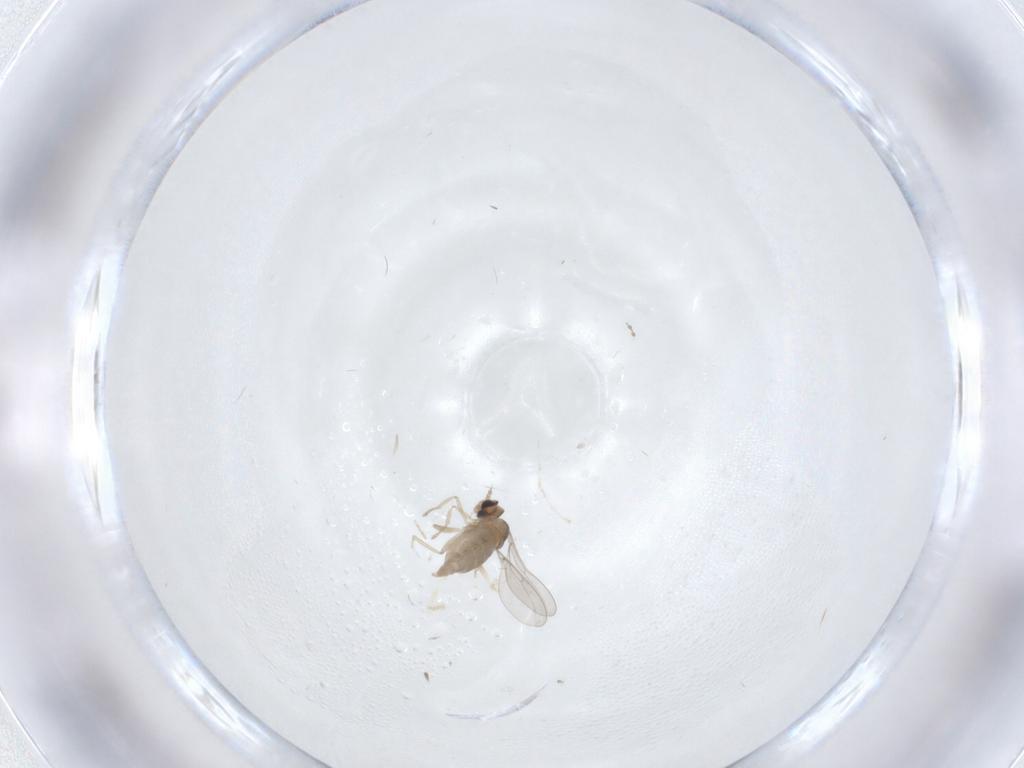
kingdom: Animalia
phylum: Arthropoda
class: Insecta
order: Diptera
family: Cecidomyiidae
